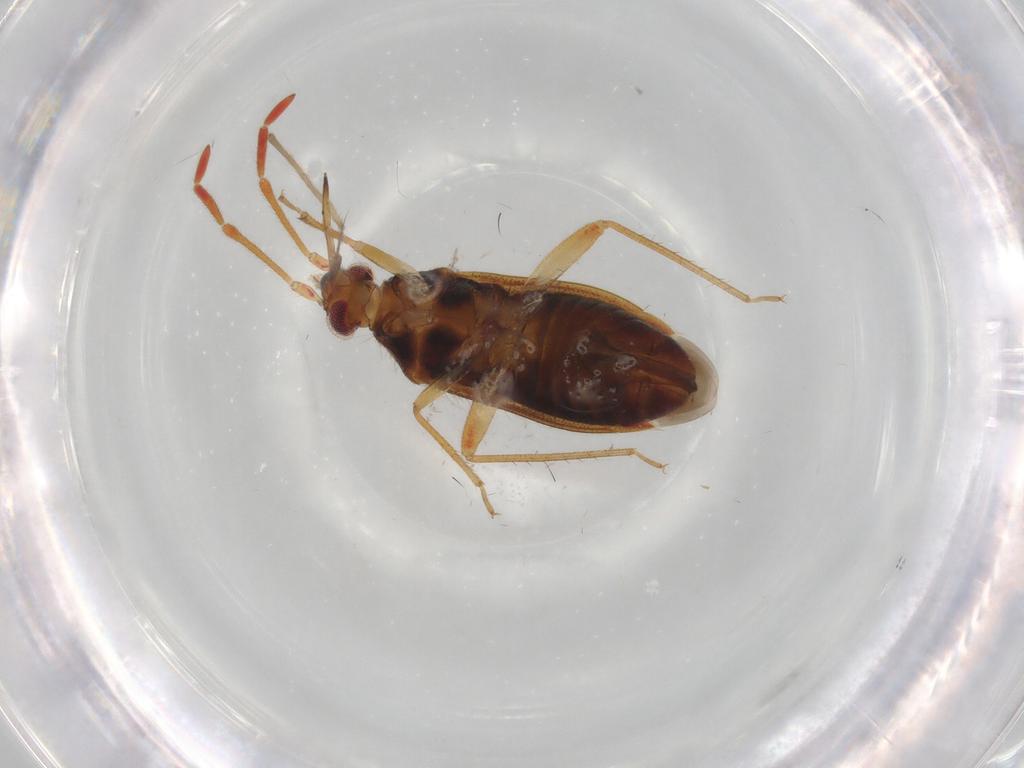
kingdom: Animalia
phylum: Arthropoda
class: Insecta
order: Hemiptera
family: Miridae
